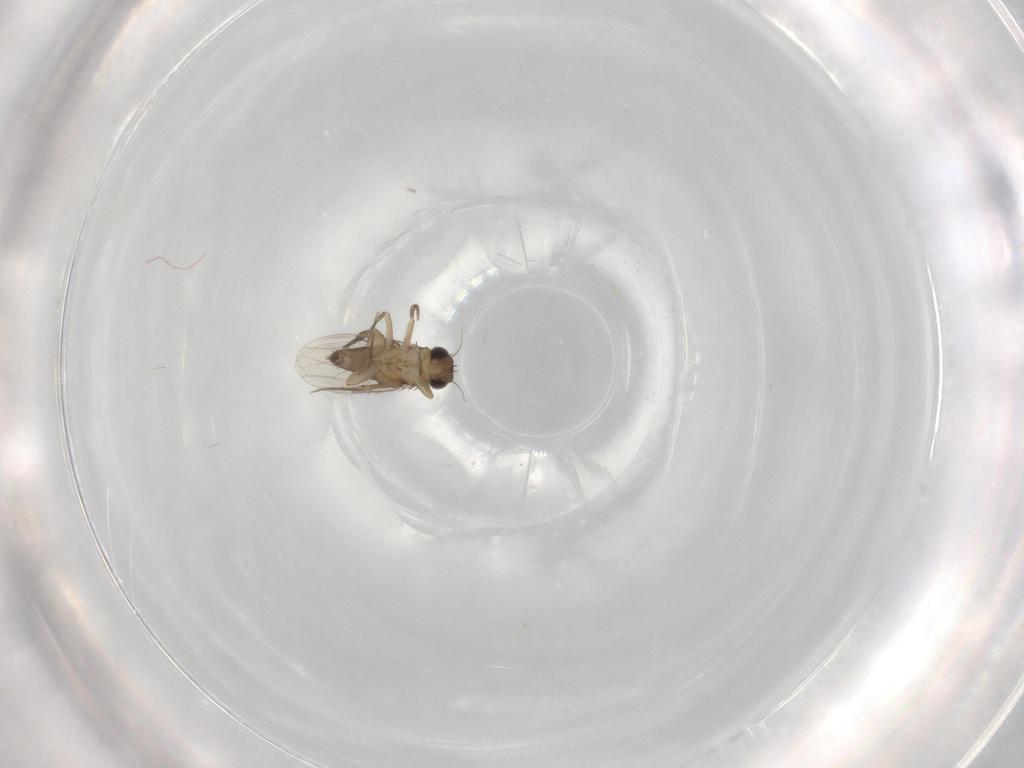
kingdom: Animalia
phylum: Arthropoda
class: Insecta
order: Diptera
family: Phoridae
